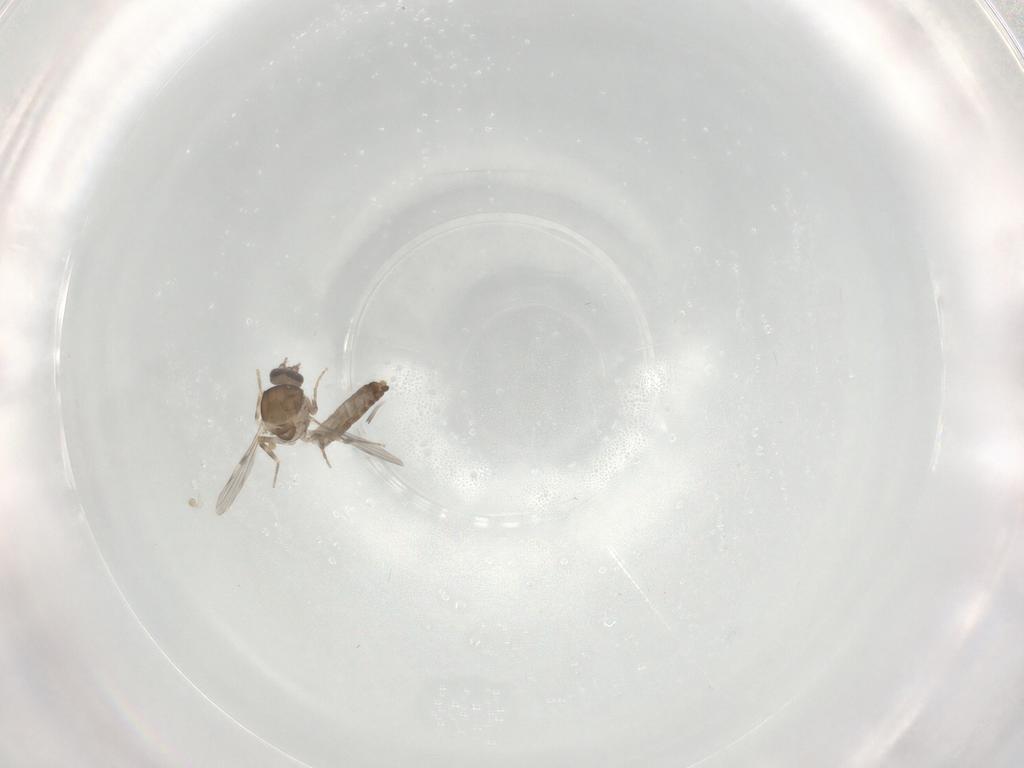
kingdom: Animalia
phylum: Arthropoda
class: Insecta
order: Diptera
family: Ceratopogonidae
